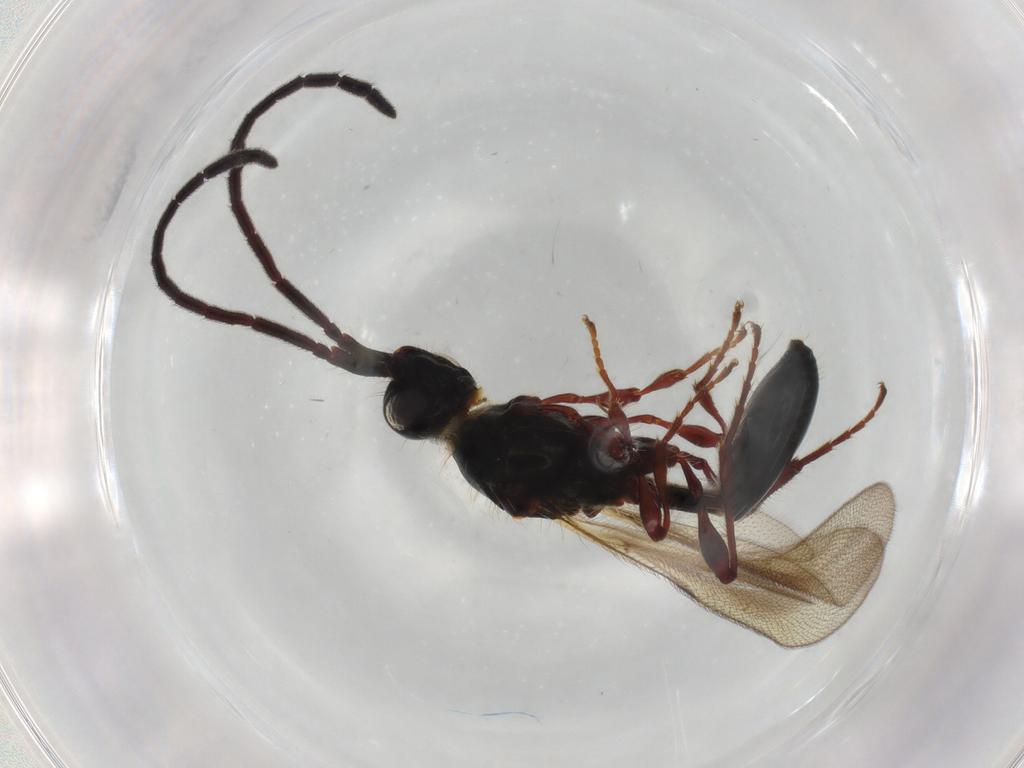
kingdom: Animalia
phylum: Arthropoda
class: Insecta
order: Hymenoptera
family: Diapriidae
